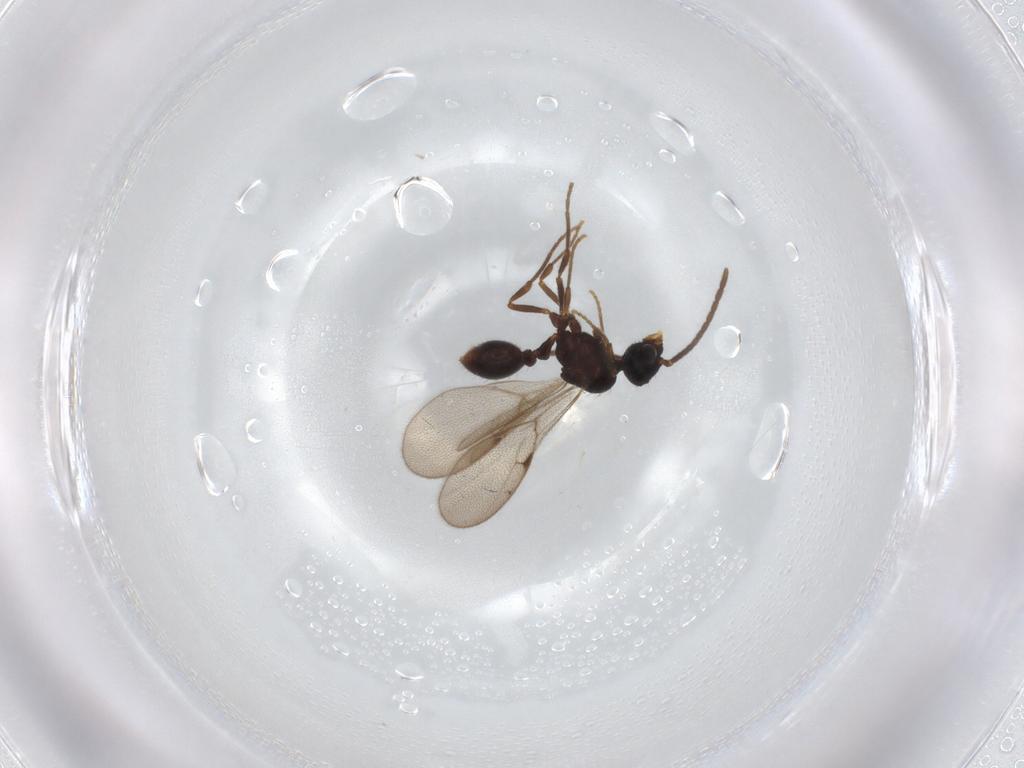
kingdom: Animalia
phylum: Arthropoda
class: Insecta
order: Hymenoptera
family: Formicidae
